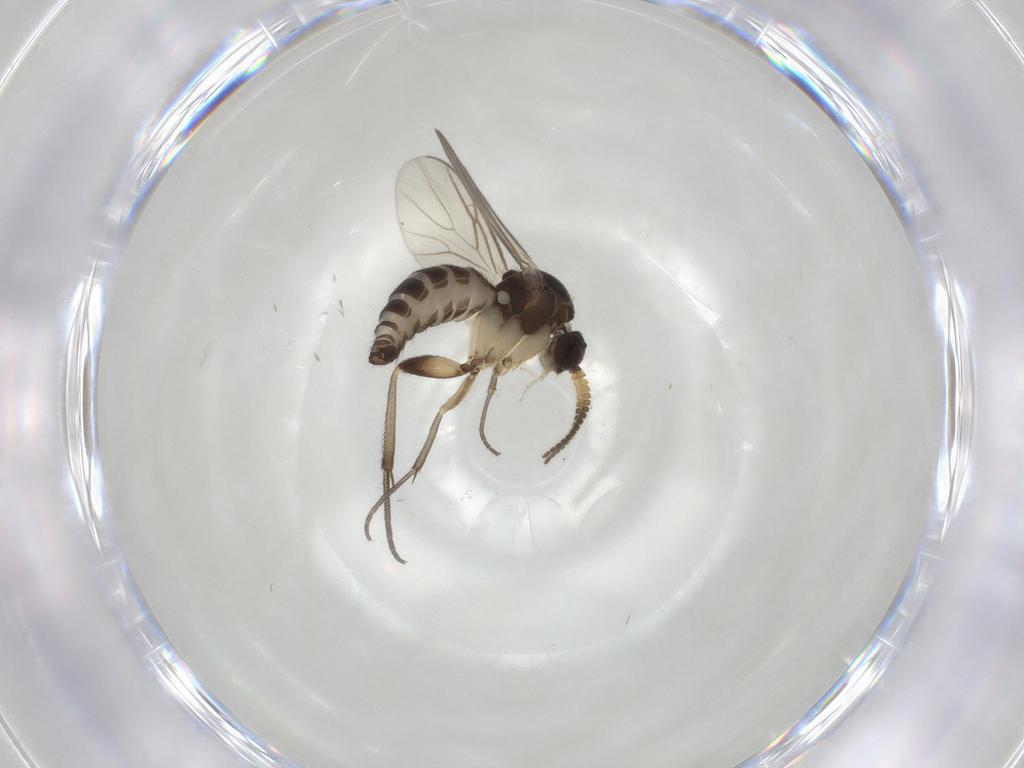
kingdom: Animalia
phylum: Arthropoda
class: Insecta
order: Diptera
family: Mycetophilidae
